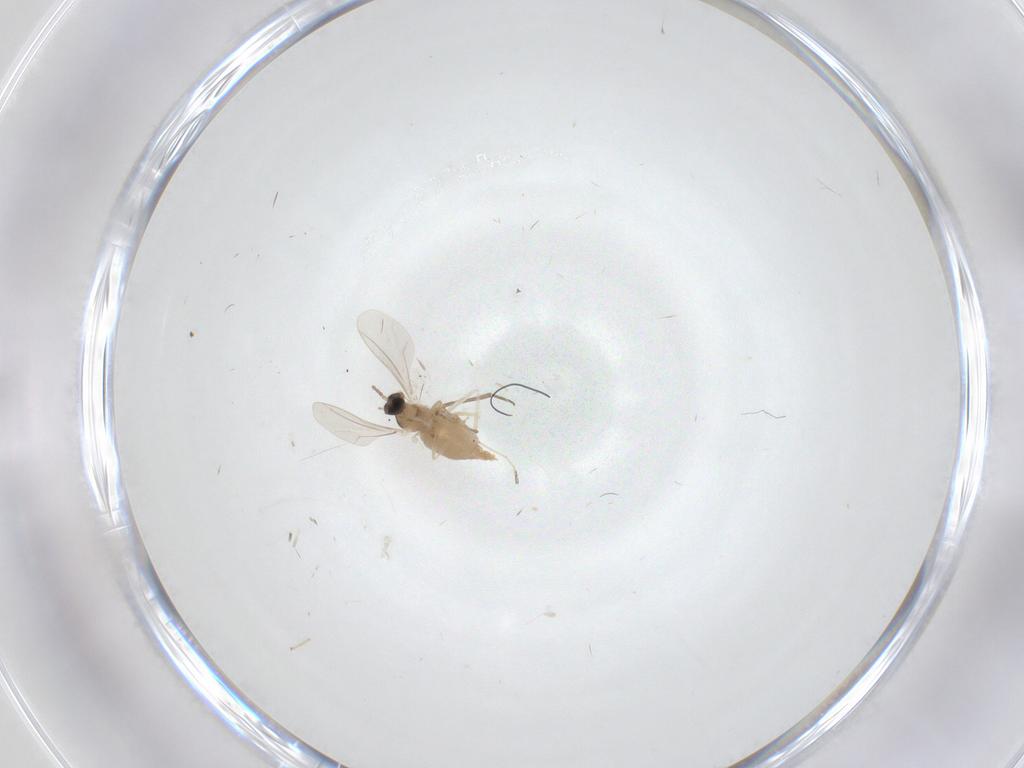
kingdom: Animalia
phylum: Arthropoda
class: Insecta
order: Diptera
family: Cecidomyiidae
